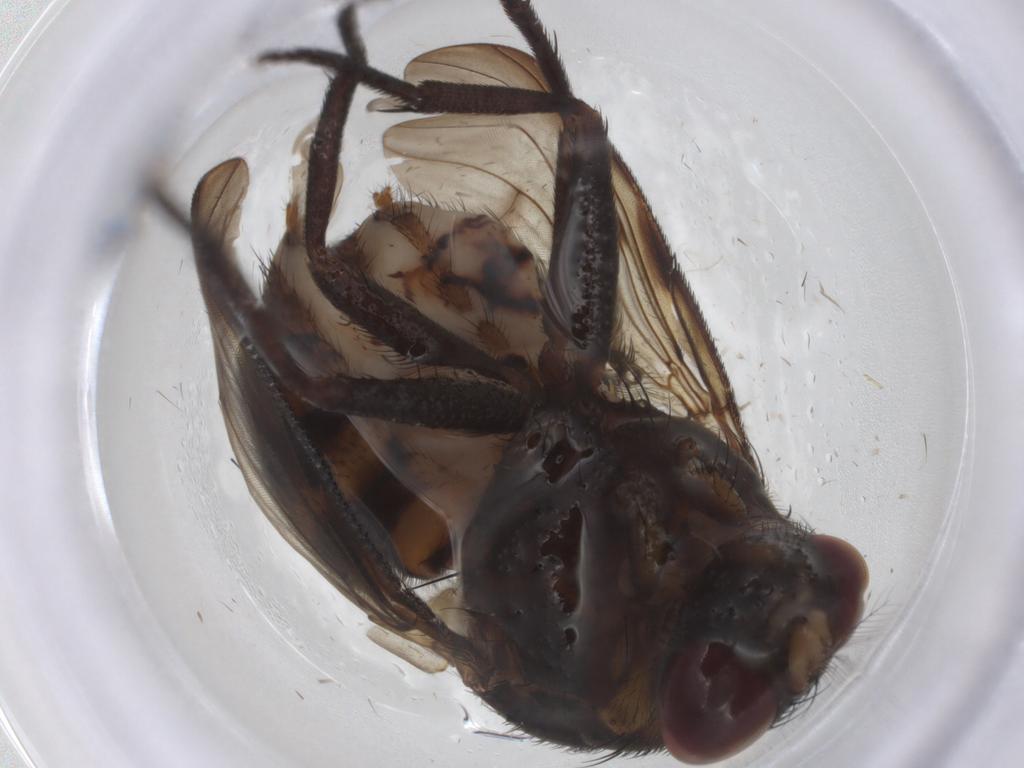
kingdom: Animalia
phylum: Arthropoda
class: Insecta
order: Diptera
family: Muscidae
